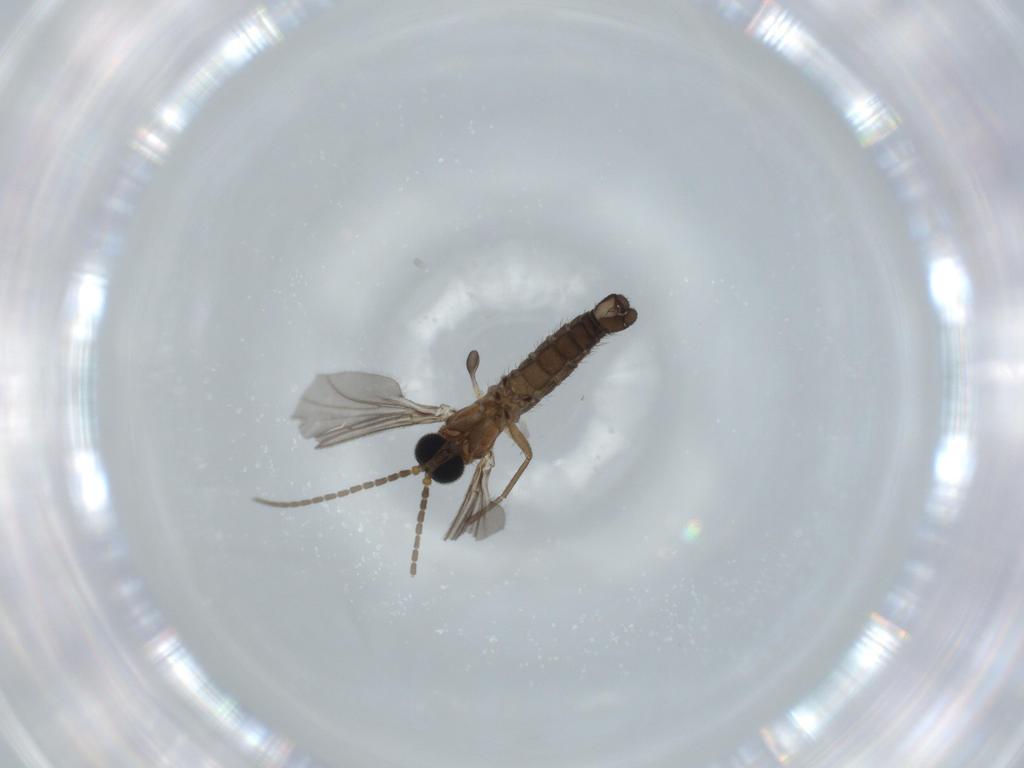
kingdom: Animalia
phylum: Arthropoda
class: Insecta
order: Diptera
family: Sciaridae
